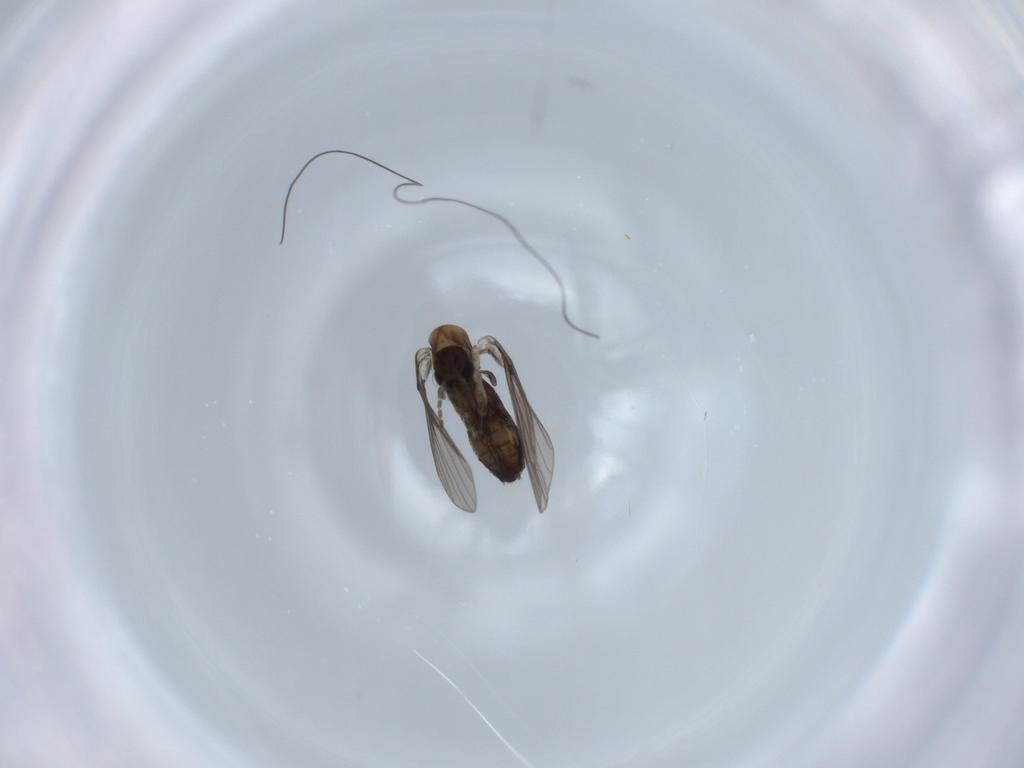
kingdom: Animalia
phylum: Arthropoda
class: Insecta
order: Diptera
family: Psychodidae
